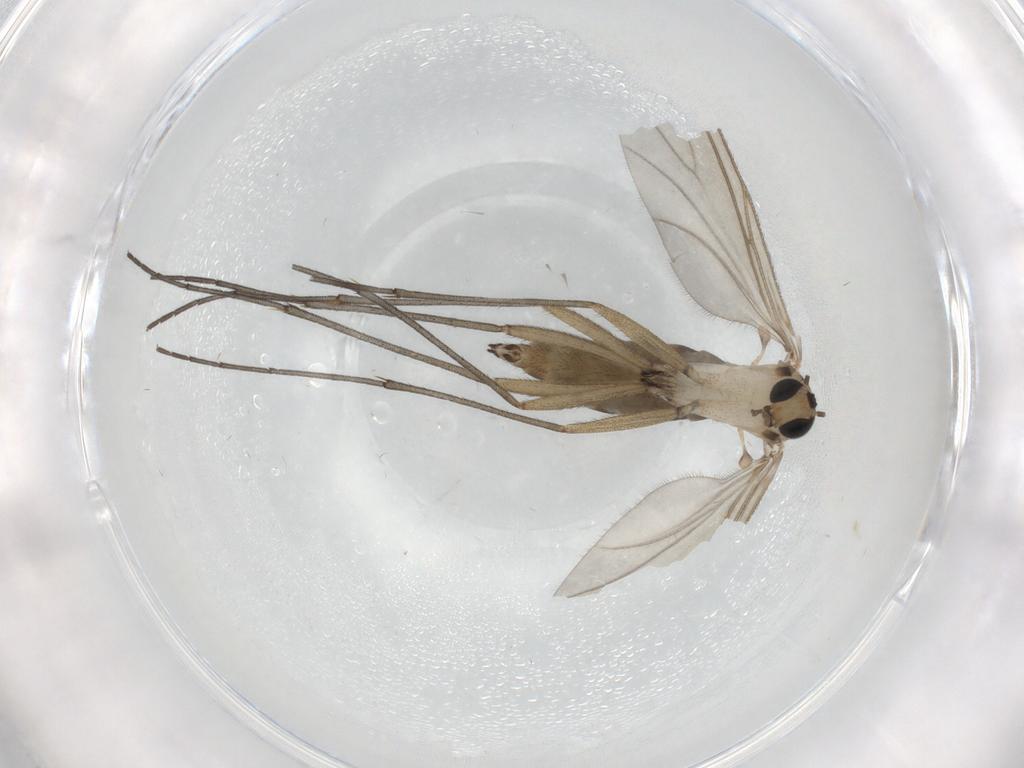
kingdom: Animalia
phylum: Arthropoda
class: Insecta
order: Diptera
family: Sciaridae
